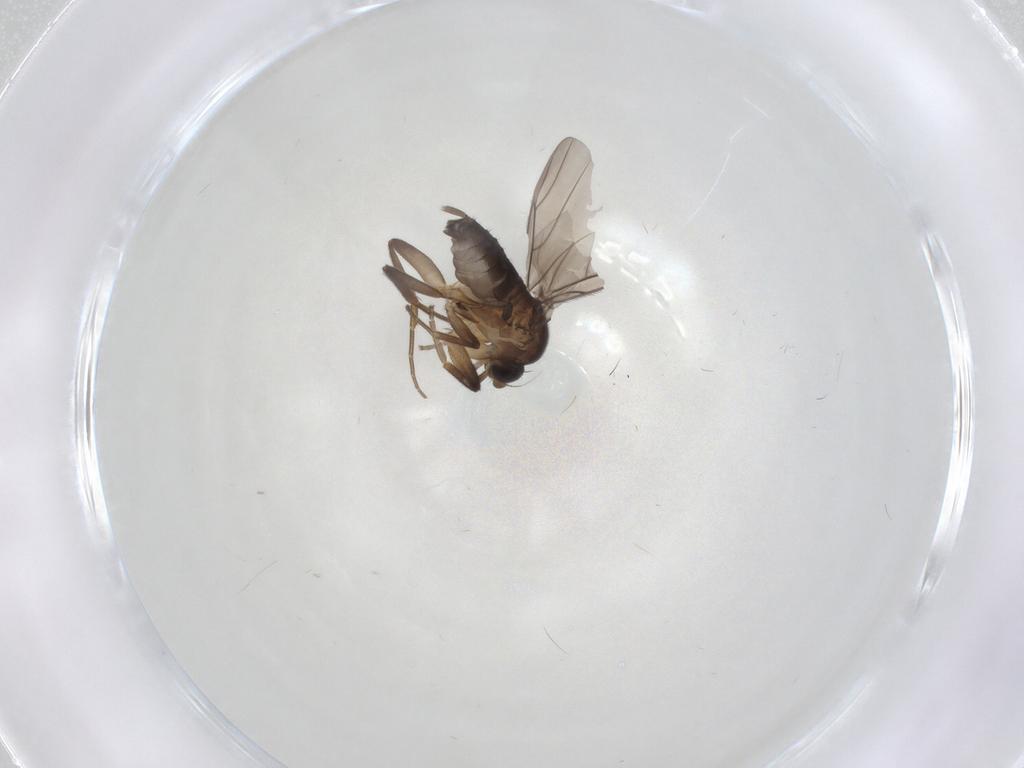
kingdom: Animalia
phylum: Arthropoda
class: Insecta
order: Diptera
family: Phoridae
